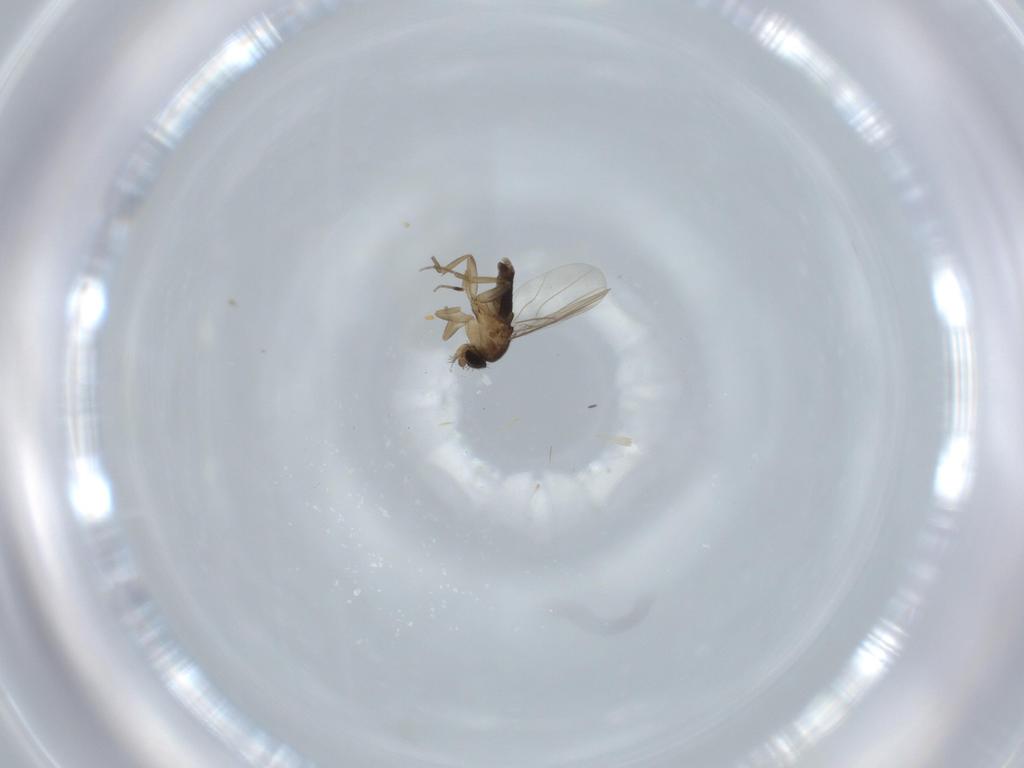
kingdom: Animalia
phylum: Arthropoda
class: Insecta
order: Diptera
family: Phoridae
